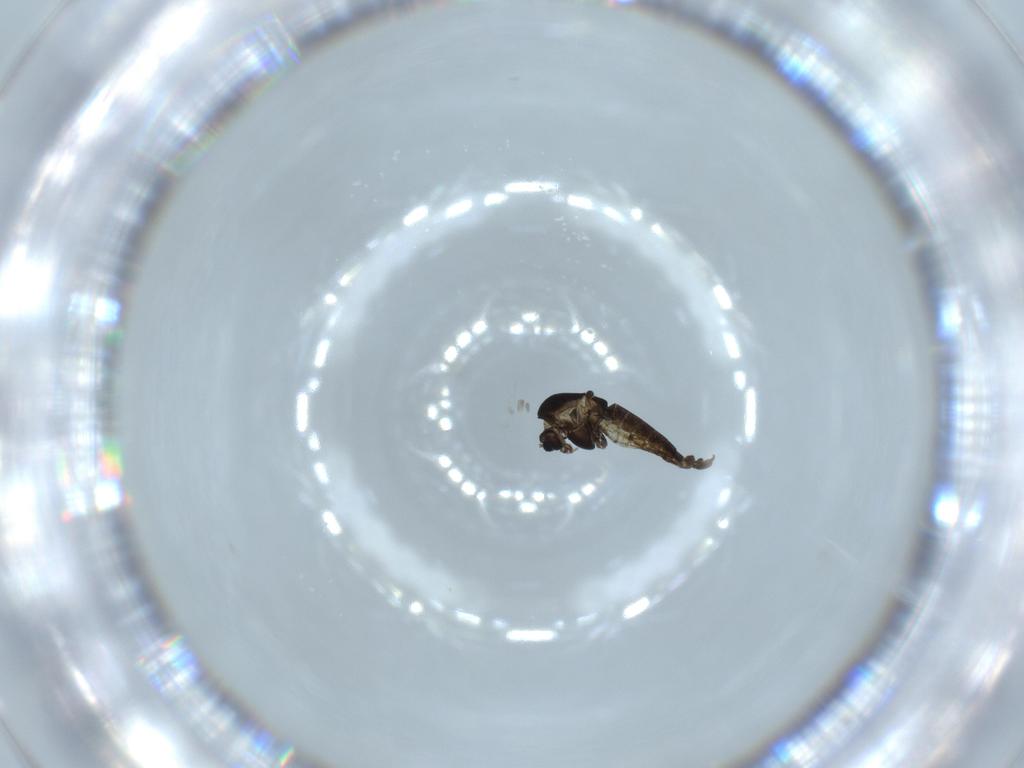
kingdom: Animalia
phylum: Arthropoda
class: Insecta
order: Diptera
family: Chironomidae
